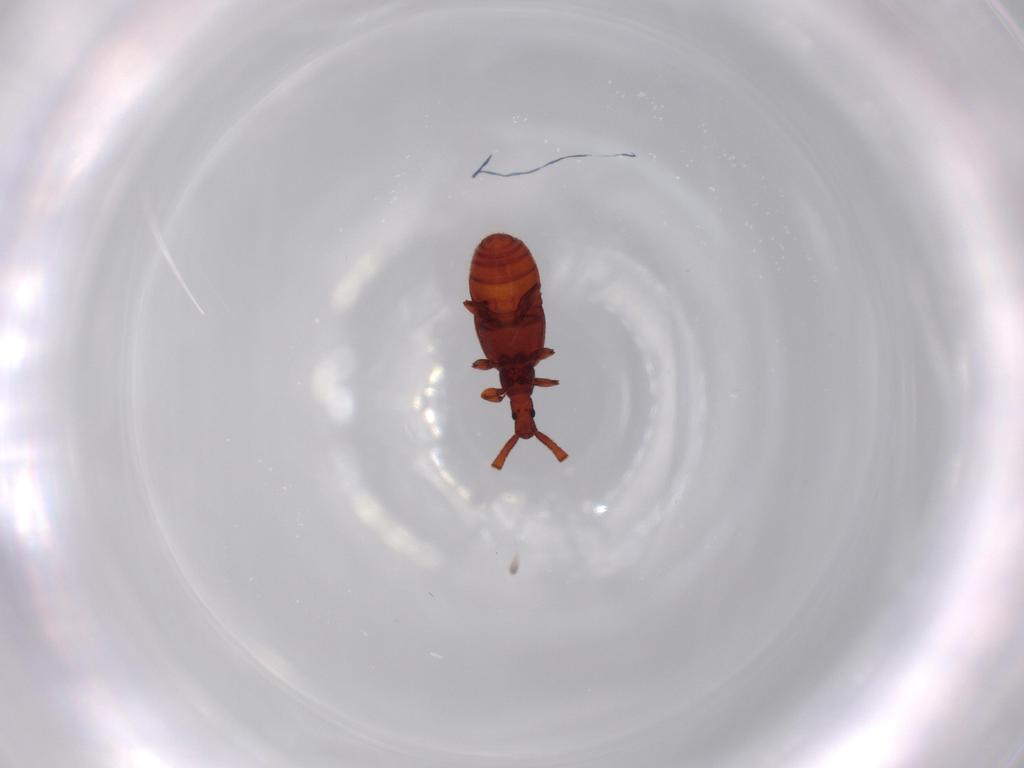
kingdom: Animalia
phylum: Arthropoda
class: Insecta
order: Coleoptera
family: Staphylinidae
